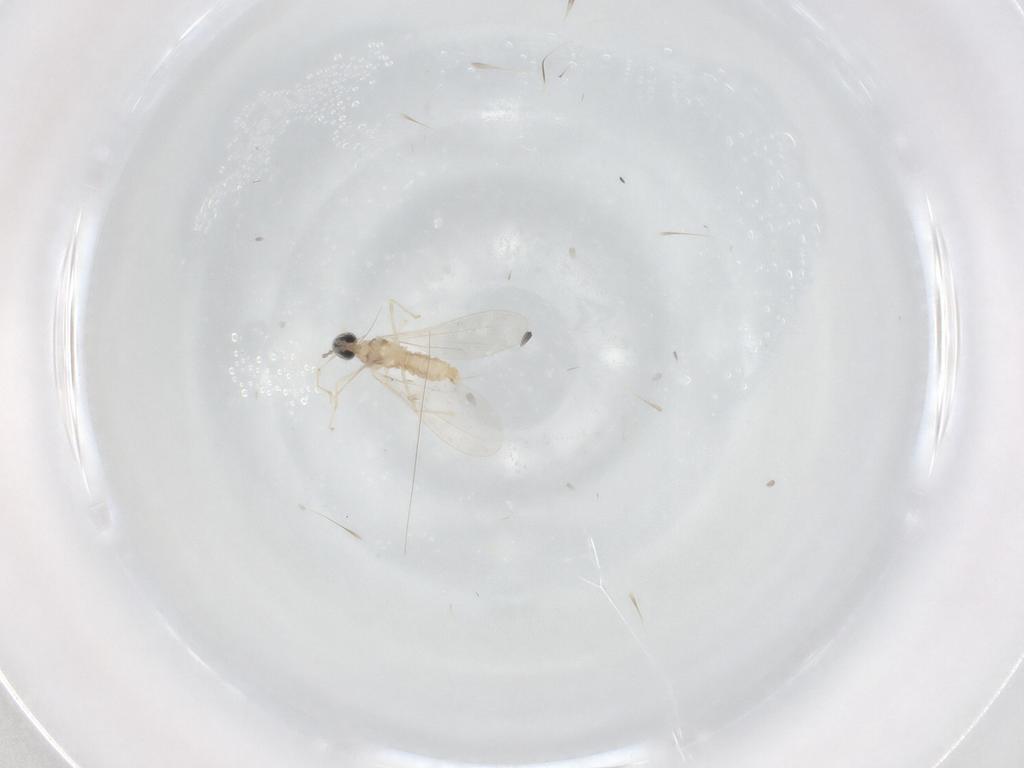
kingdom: Animalia
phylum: Arthropoda
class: Insecta
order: Diptera
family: Cecidomyiidae
